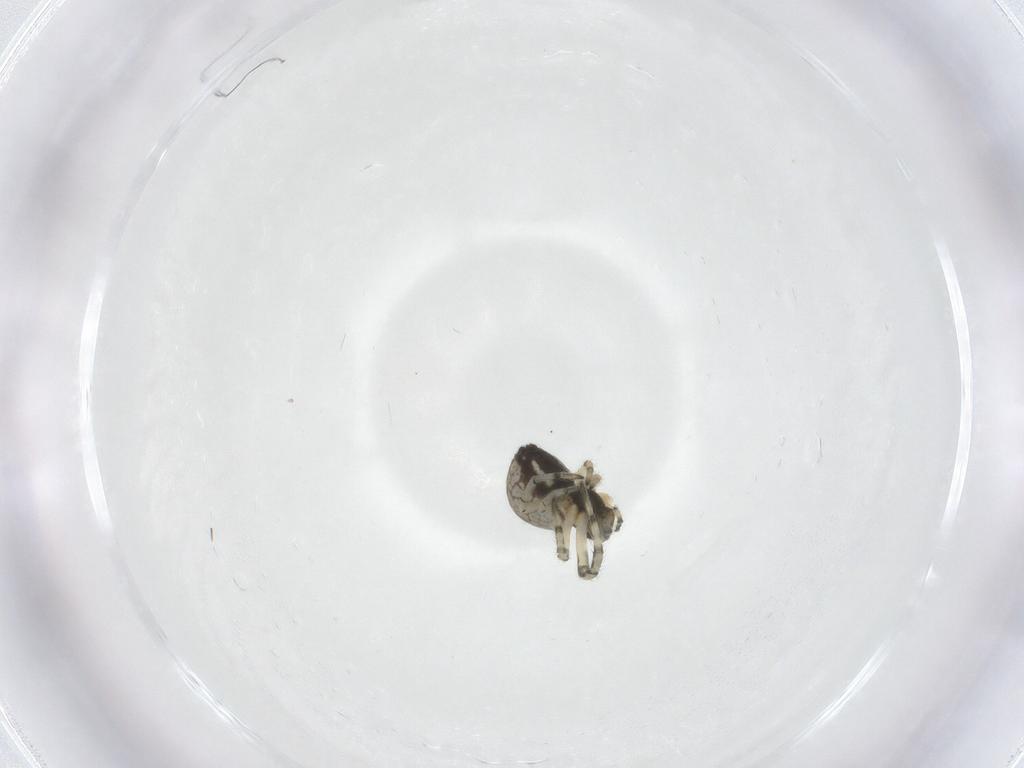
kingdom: Animalia
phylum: Arthropoda
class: Arachnida
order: Araneae
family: Tetragnathidae
